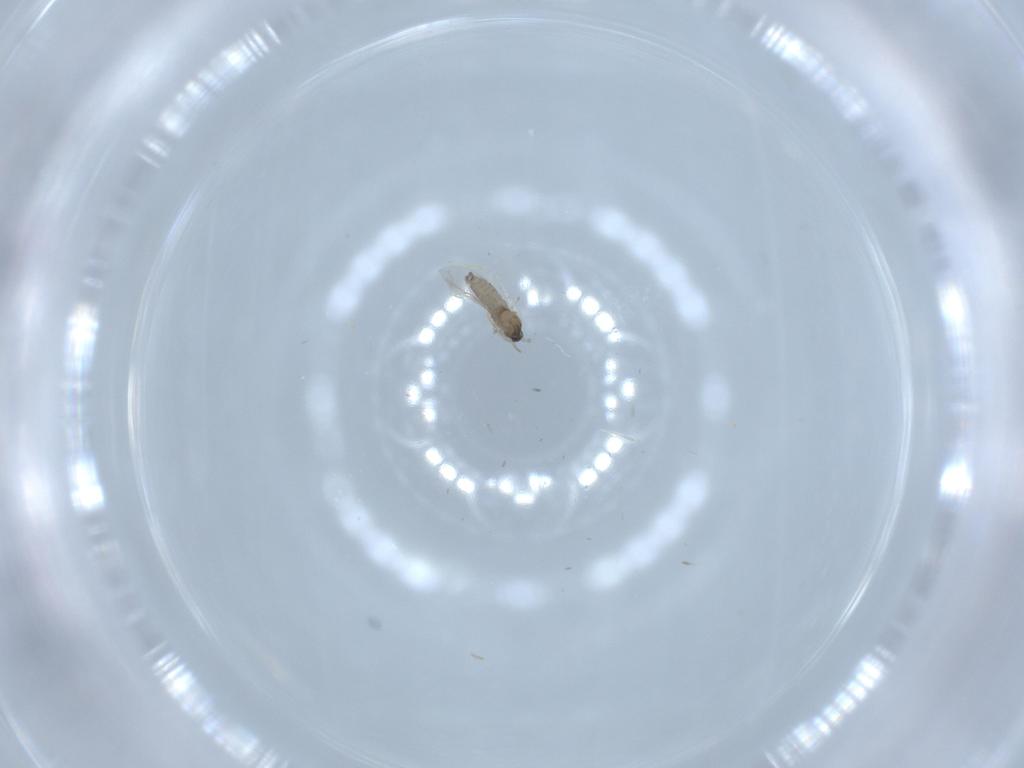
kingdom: Animalia
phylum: Arthropoda
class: Insecta
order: Diptera
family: Cecidomyiidae
